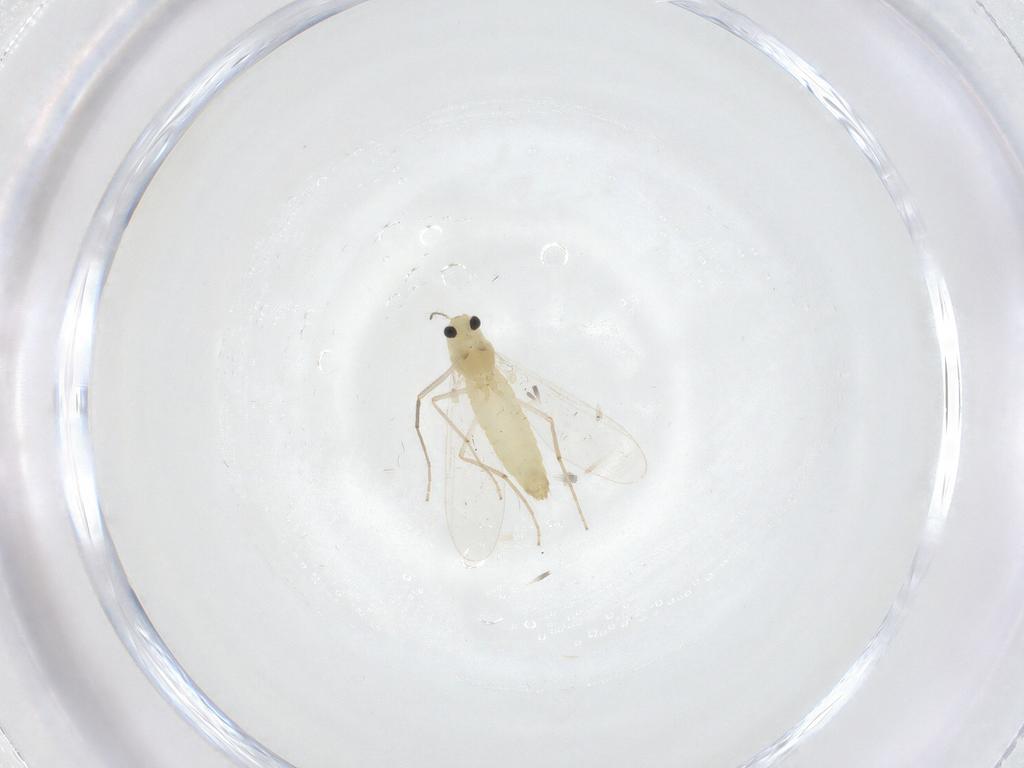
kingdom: Animalia
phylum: Arthropoda
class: Insecta
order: Diptera
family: Chironomidae
